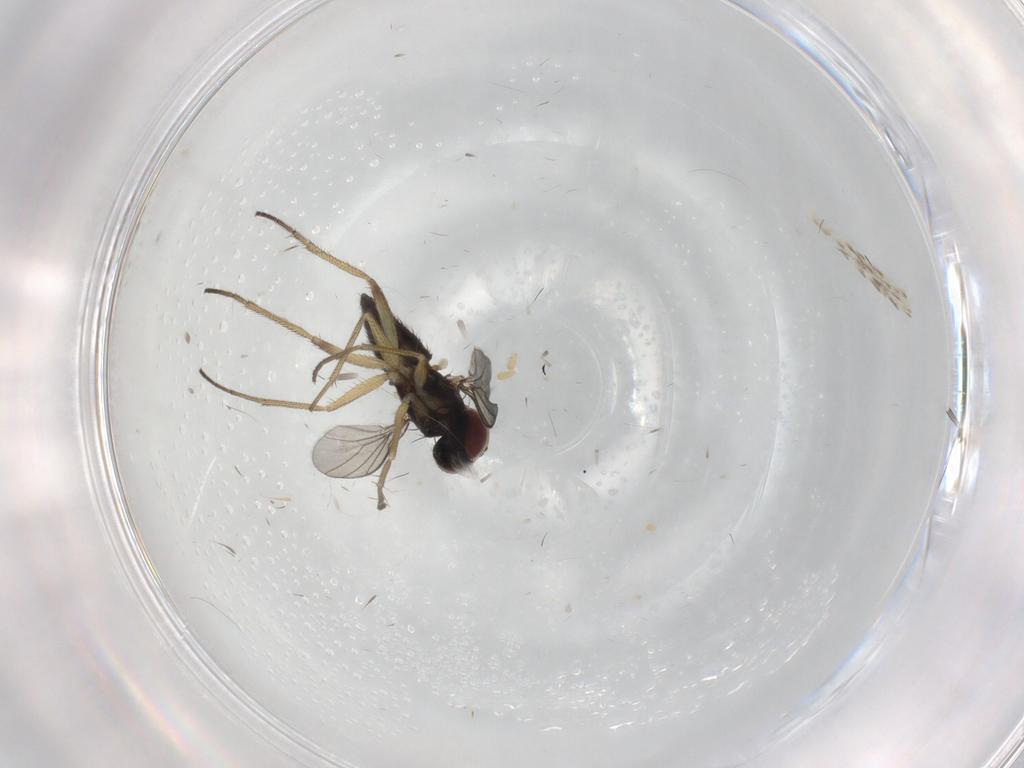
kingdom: Animalia
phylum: Arthropoda
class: Insecta
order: Diptera
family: Dolichopodidae
